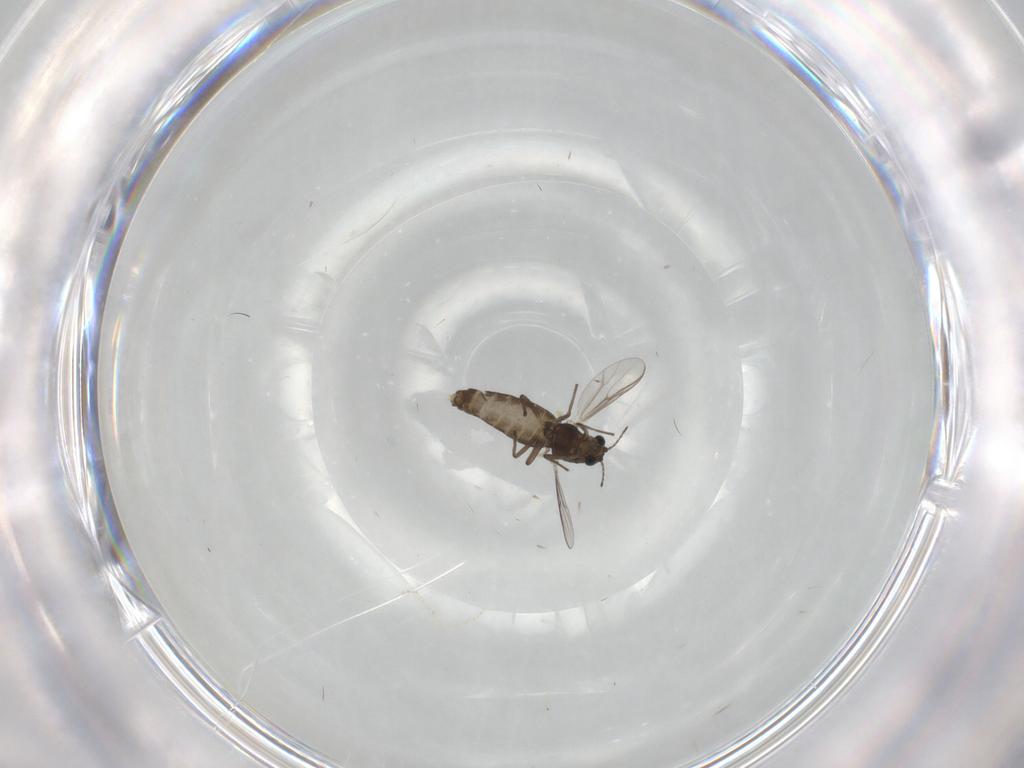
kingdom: Animalia
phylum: Arthropoda
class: Insecta
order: Diptera
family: Chironomidae
